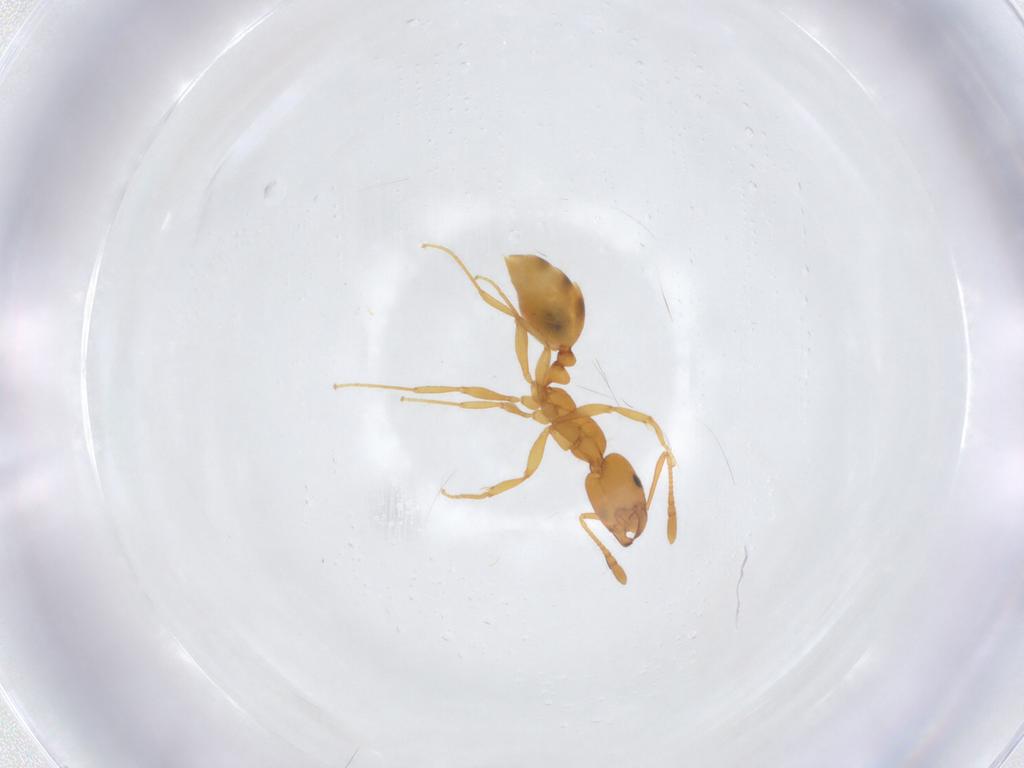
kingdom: Animalia
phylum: Arthropoda
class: Insecta
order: Hymenoptera
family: Formicidae
